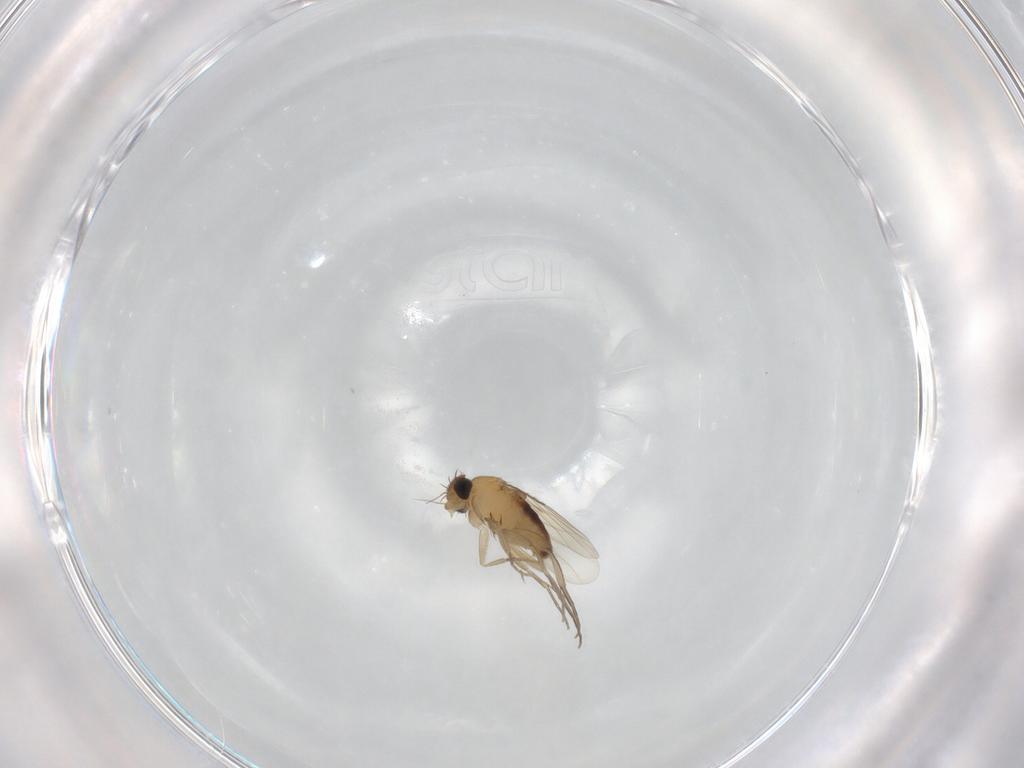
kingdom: Animalia
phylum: Arthropoda
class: Insecta
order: Diptera
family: Phoridae
